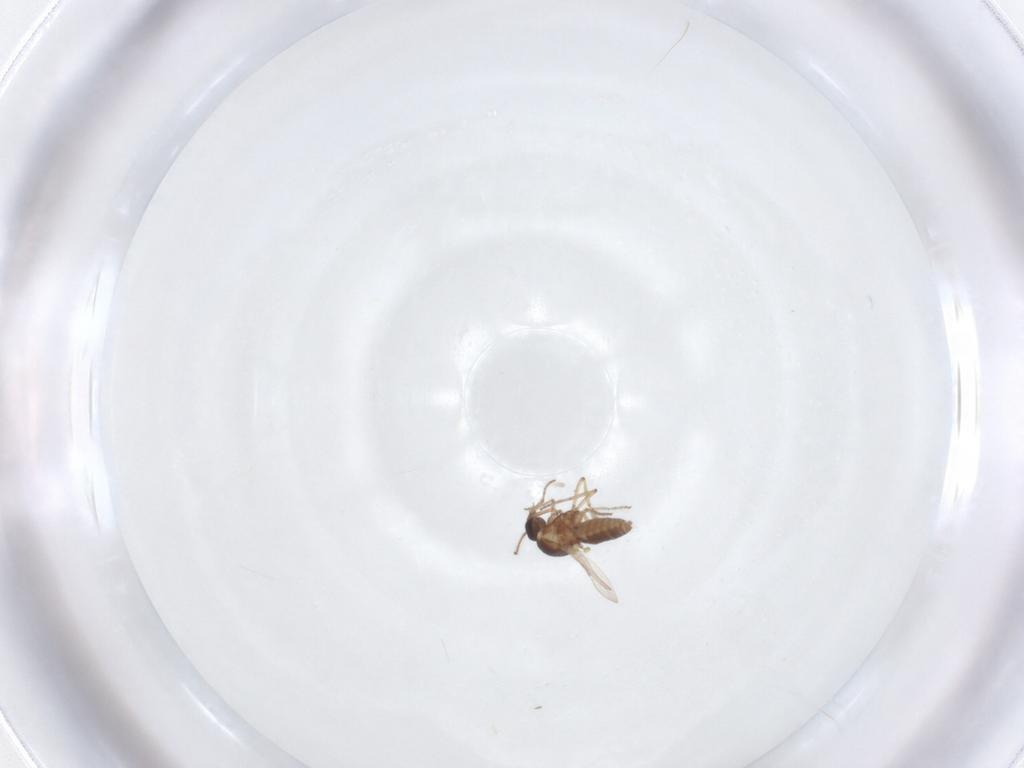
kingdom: Animalia
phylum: Arthropoda
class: Insecta
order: Diptera
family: Ceratopogonidae
